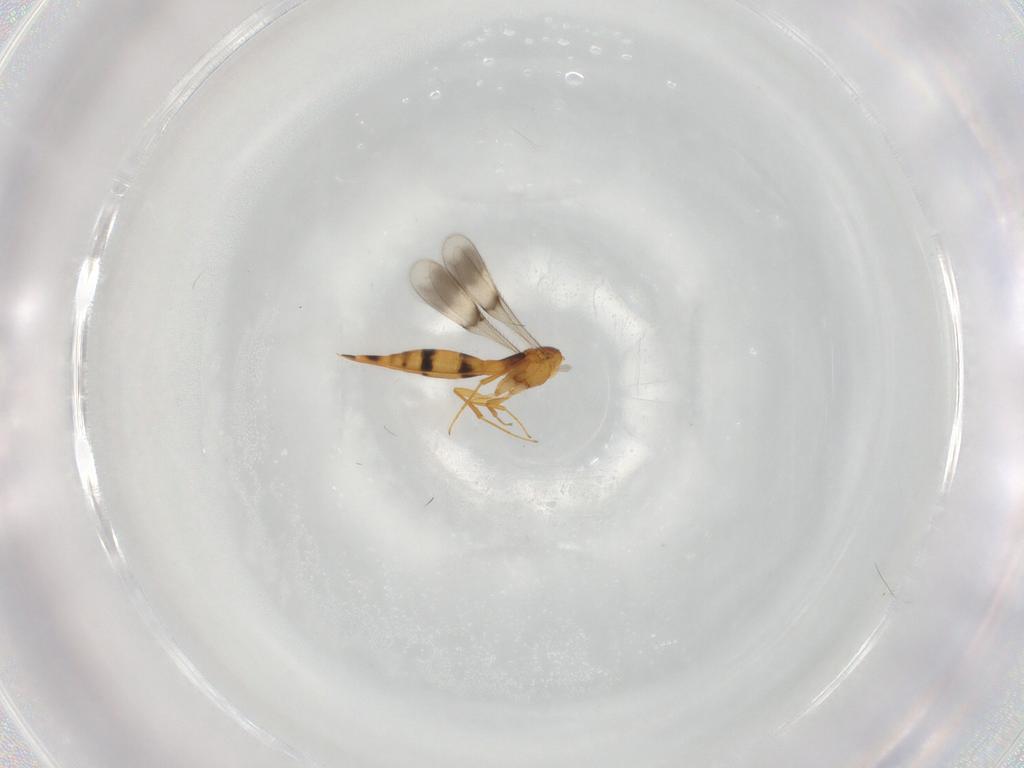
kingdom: Animalia
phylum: Arthropoda
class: Insecta
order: Hymenoptera
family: Scelionidae
